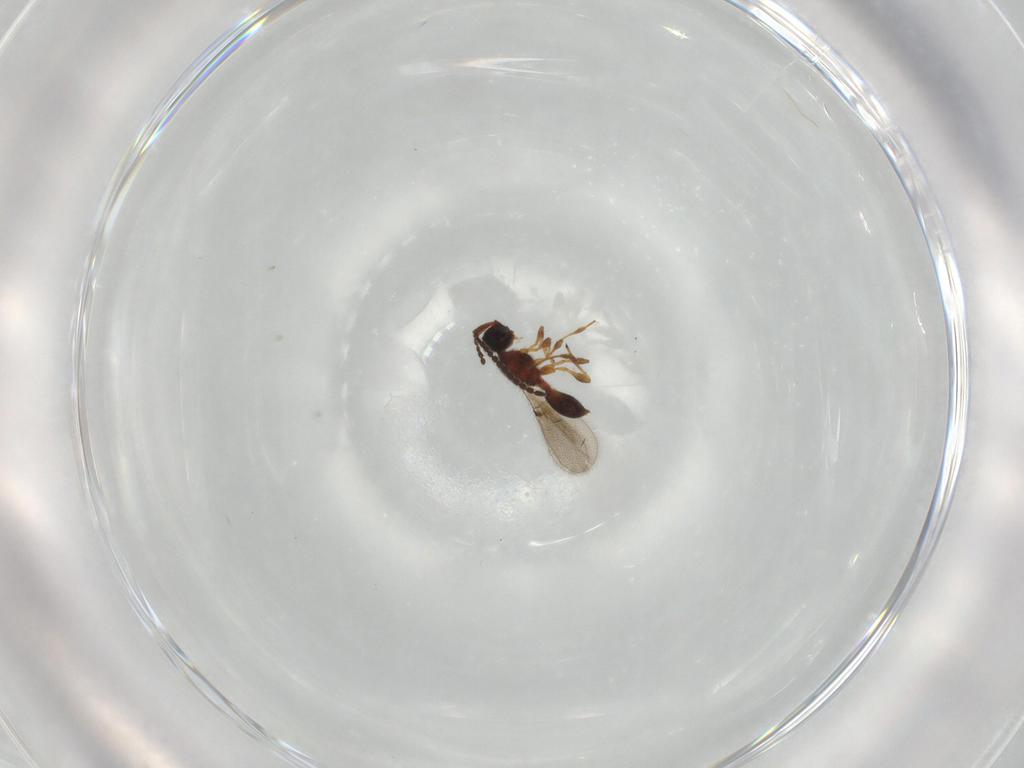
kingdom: Animalia
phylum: Arthropoda
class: Insecta
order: Hymenoptera
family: Diapriidae
